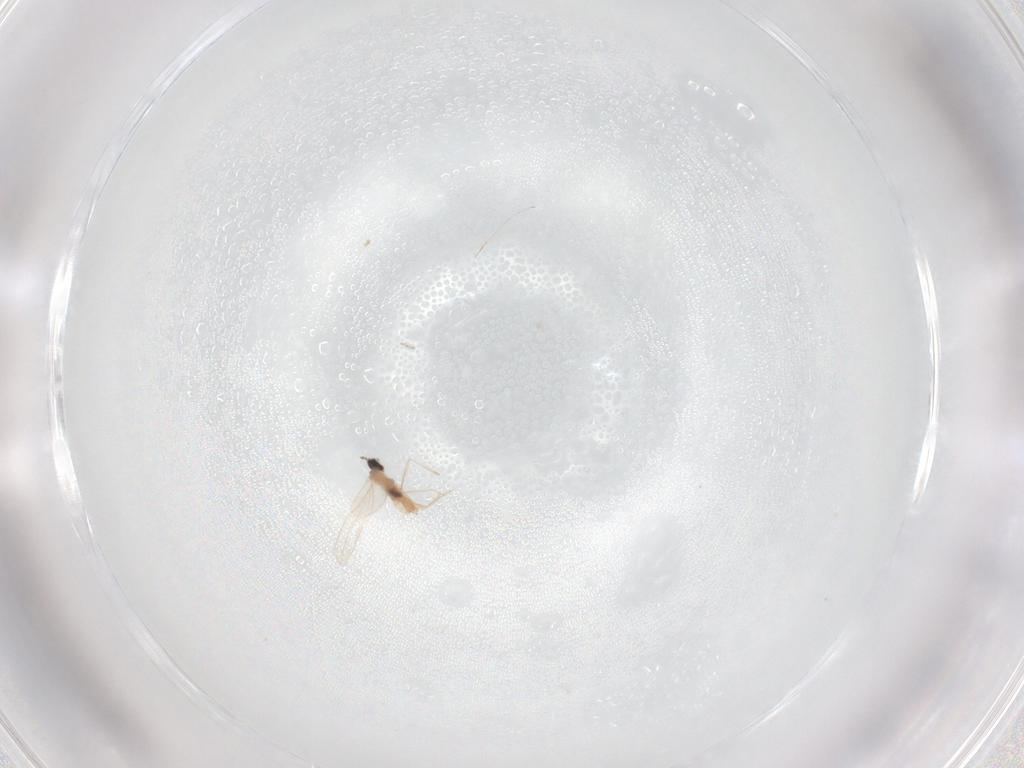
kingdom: Animalia
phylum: Arthropoda
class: Insecta
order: Diptera
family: Cecidomyiidae
